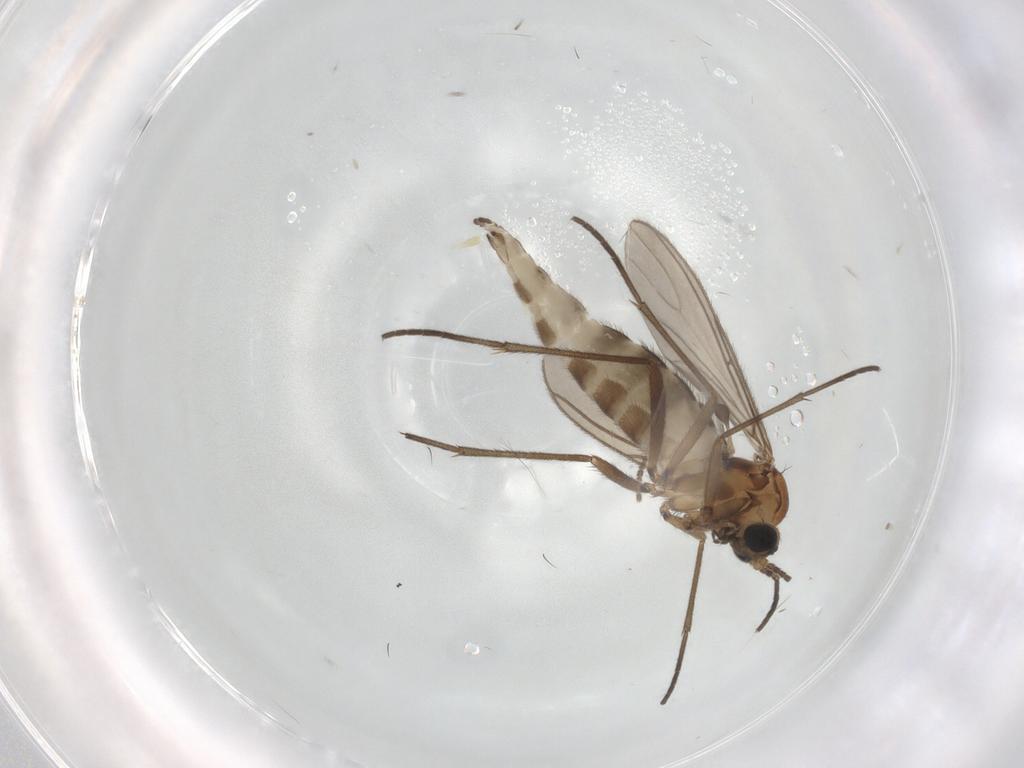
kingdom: Animalia
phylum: Arthropoda
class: Insecta
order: Diptera
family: Sciaridae
